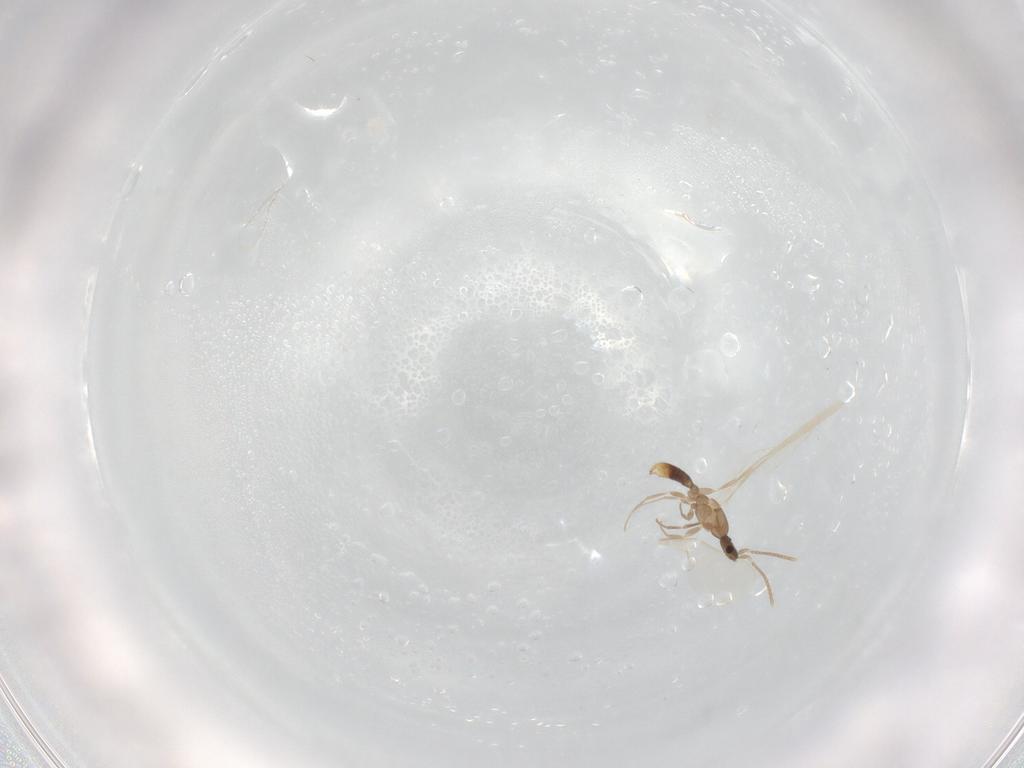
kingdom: Animalia
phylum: Arthropoda
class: Insecta
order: Hymenoptera
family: Formicidae
